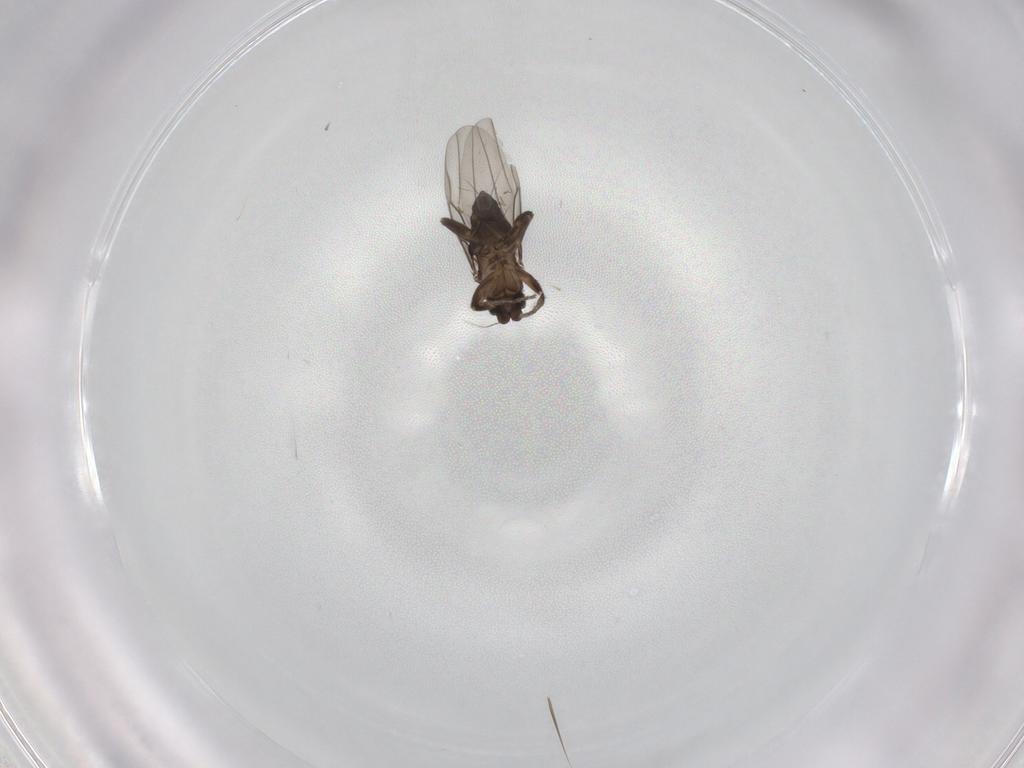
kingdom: Animalia
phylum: Arthropoda
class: Insecta
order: Diptera
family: Phoridae
